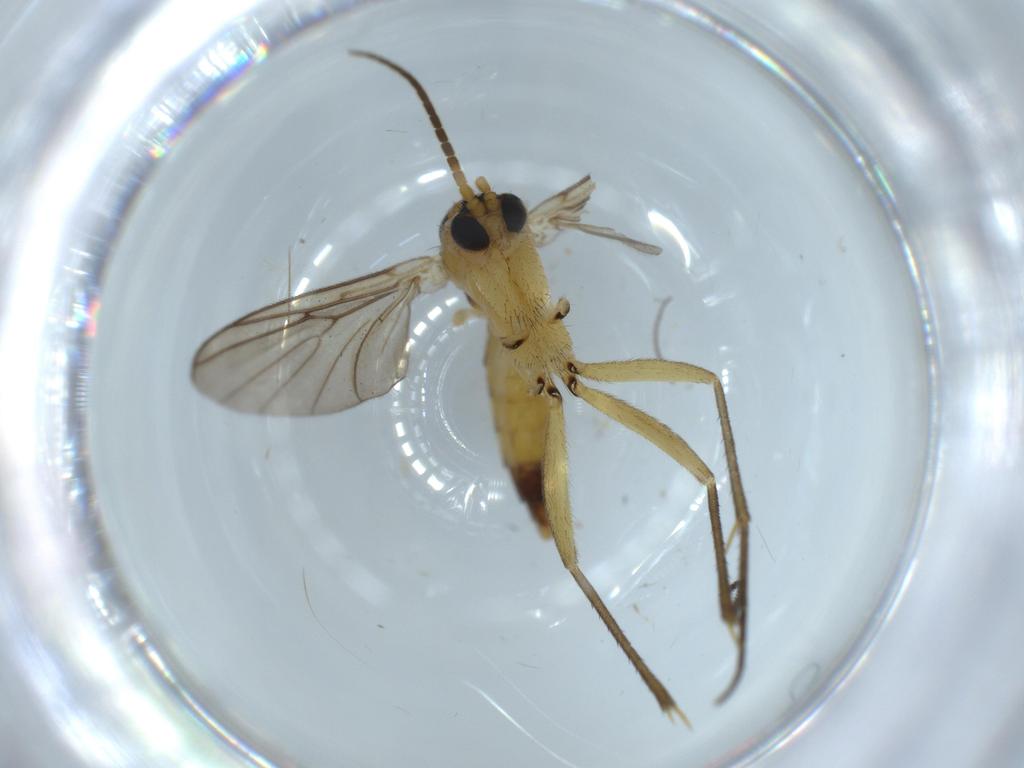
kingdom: Animalia
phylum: Arthropoda
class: Insecta
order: Diptera
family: Sciaridae
